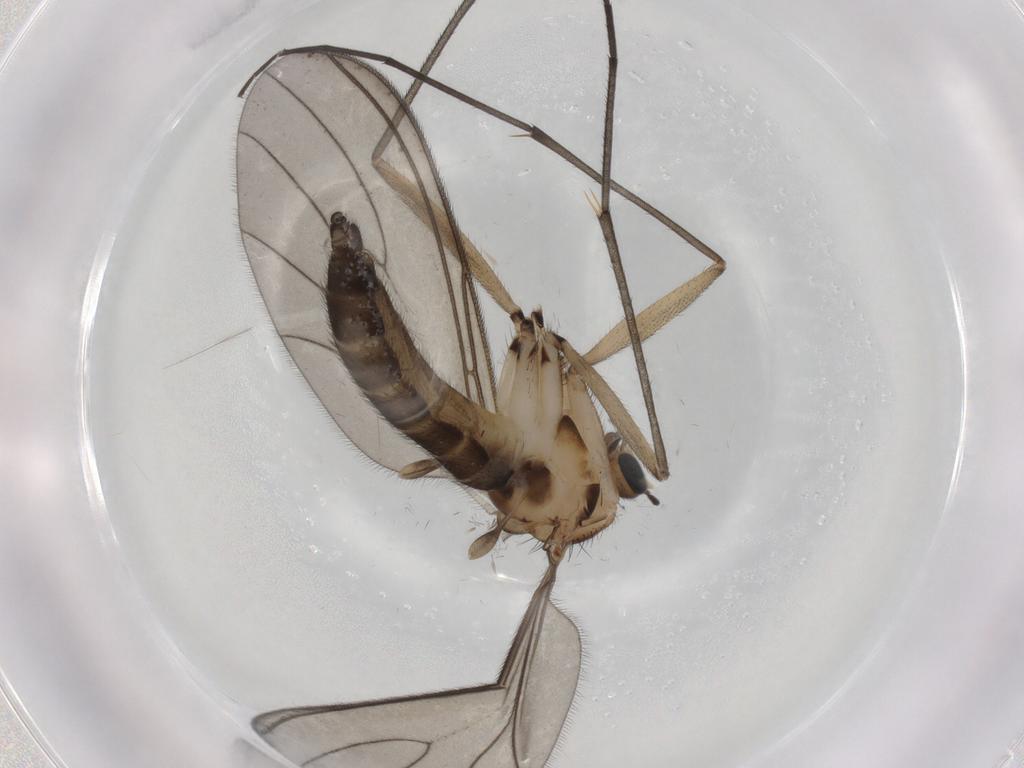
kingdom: Animalia
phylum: Arthropoda
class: Insecta
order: Diptera
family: Sciaridae
